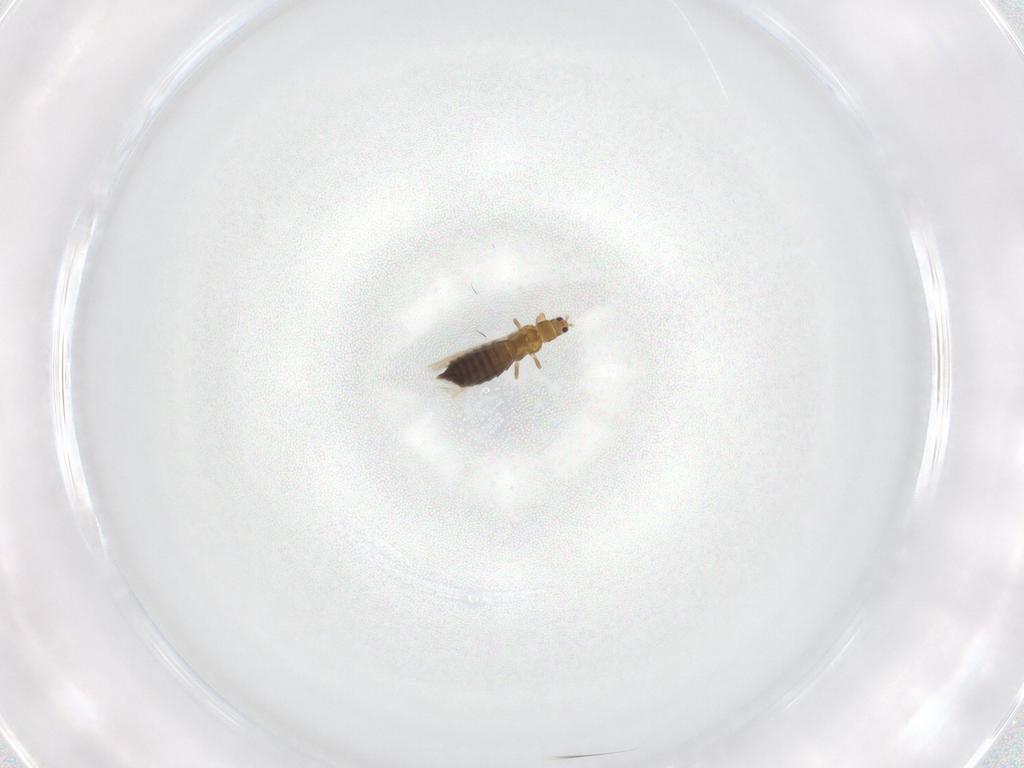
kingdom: Animalia
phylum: Arthropoda
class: Insecta
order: Thysanoptera
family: Thripidae
